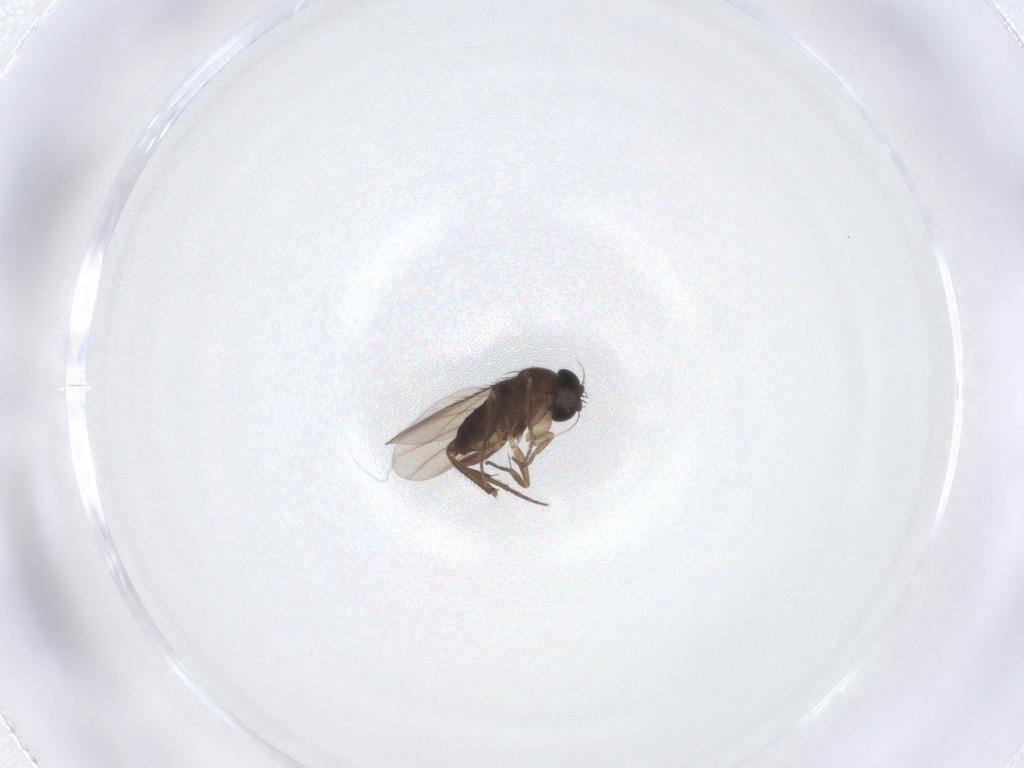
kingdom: Animalia
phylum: Arthropoda
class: Insecta
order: Diptera
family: Phoridae
